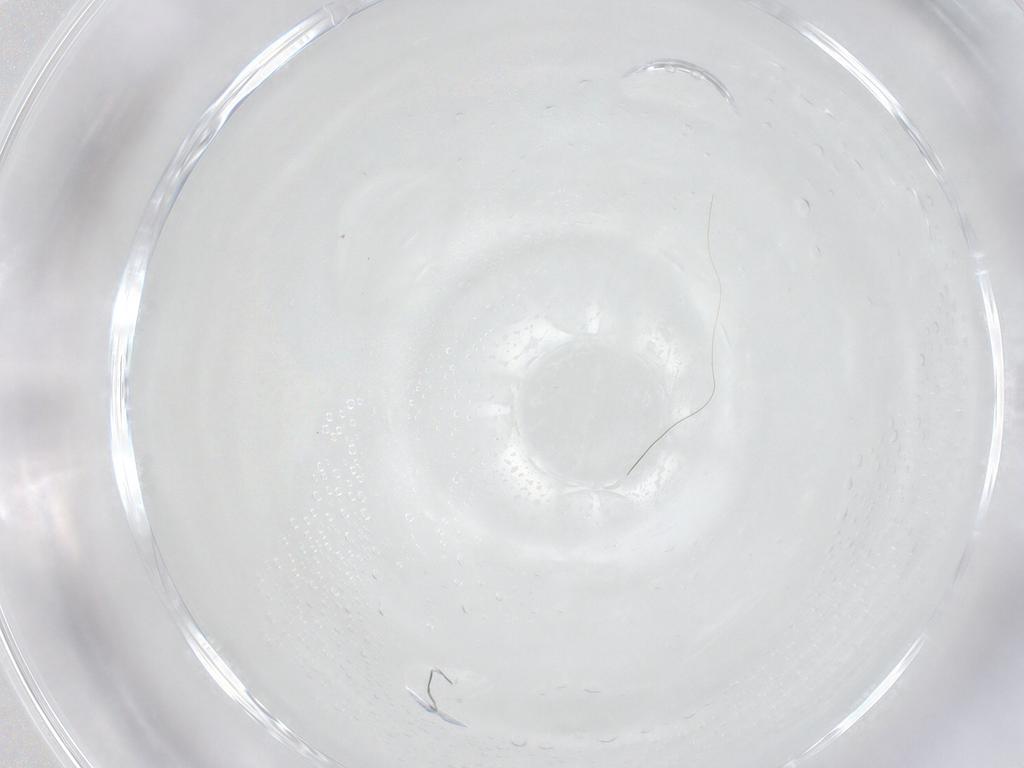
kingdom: Animalia
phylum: Arthropoda
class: Insecta
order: Diptera
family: Cecidomyiidae
